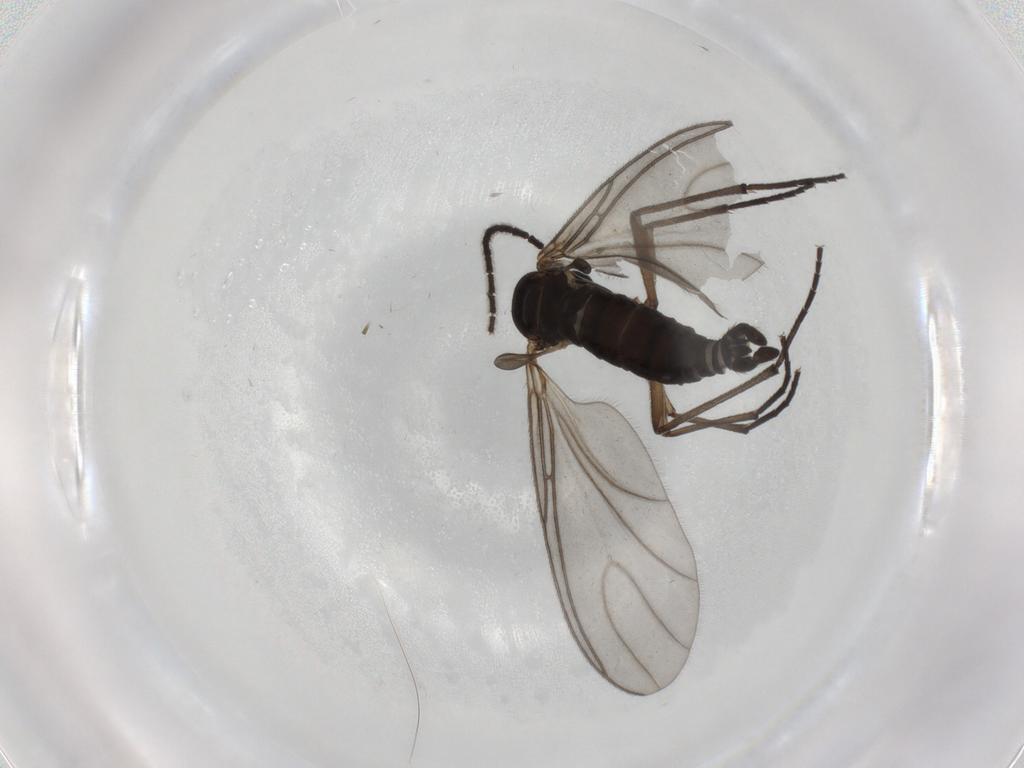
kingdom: Animalia
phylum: Arthropoda
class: Insecta
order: Diptera
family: Sciaridae
